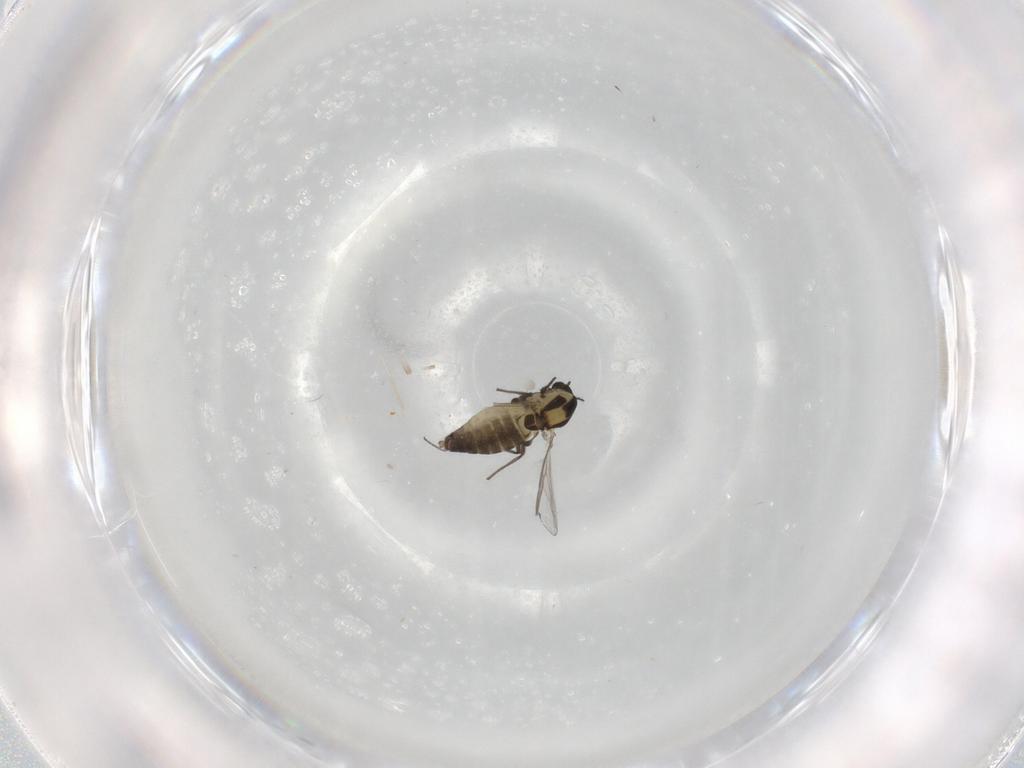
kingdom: Animalia
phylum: Arthropoda
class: Insecta
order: Diptera
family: Chironomidae
